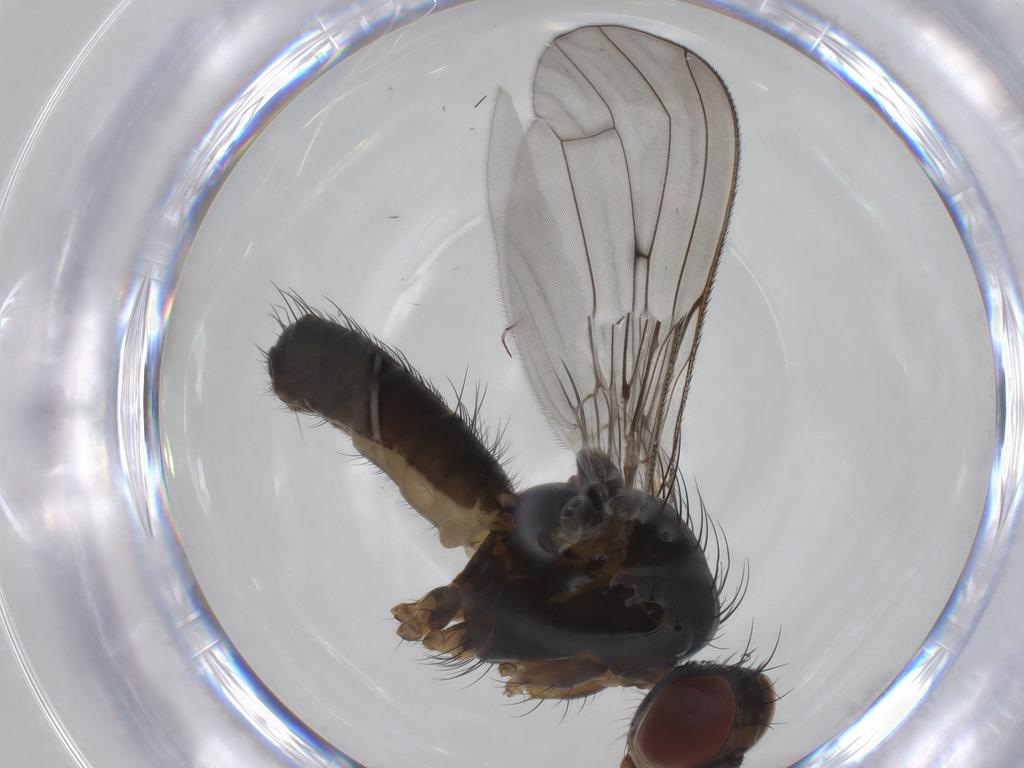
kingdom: Animalia
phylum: Arthropoda
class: Insecta
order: Diptera
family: Anthomyiidae
